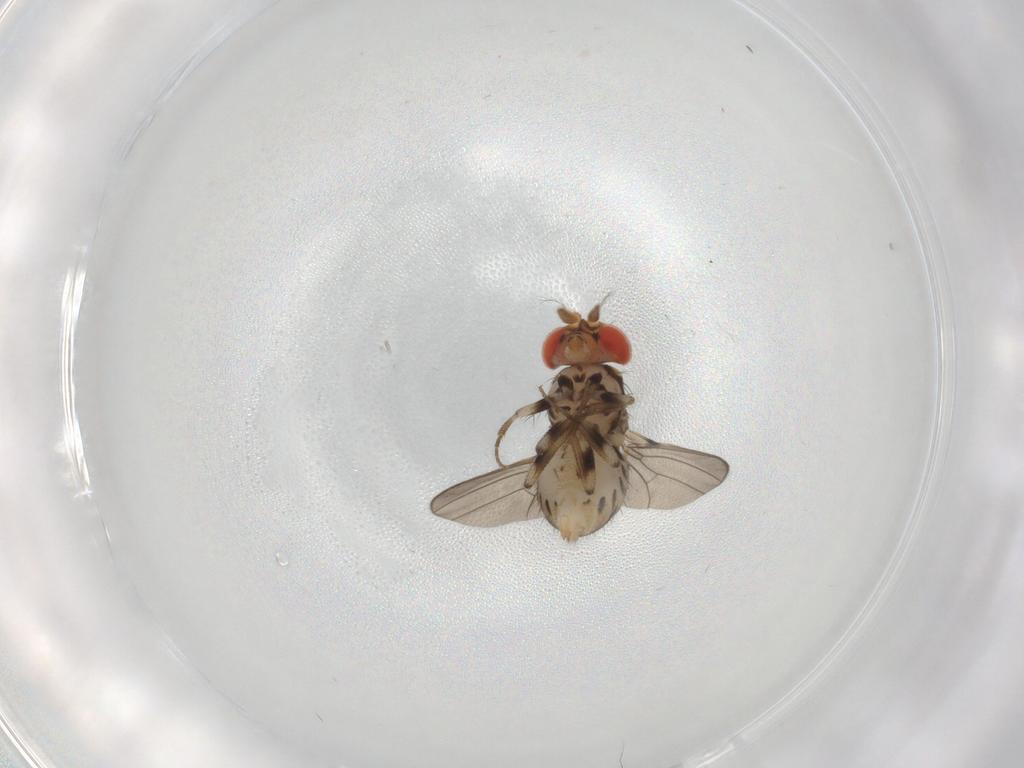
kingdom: Animalia
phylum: Arthropoda
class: Insecta
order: Diptera
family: Drosophilidae
